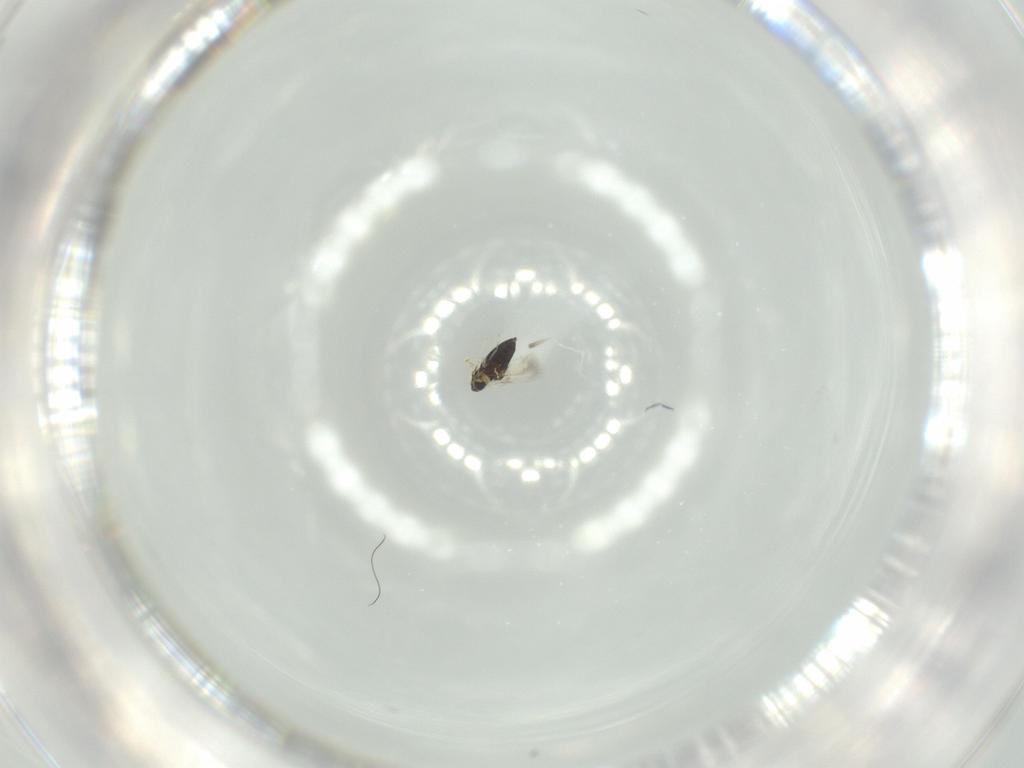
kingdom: Animalia
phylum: Arthropoda
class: Insecta
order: Hymenoptera
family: Signiphoridae
